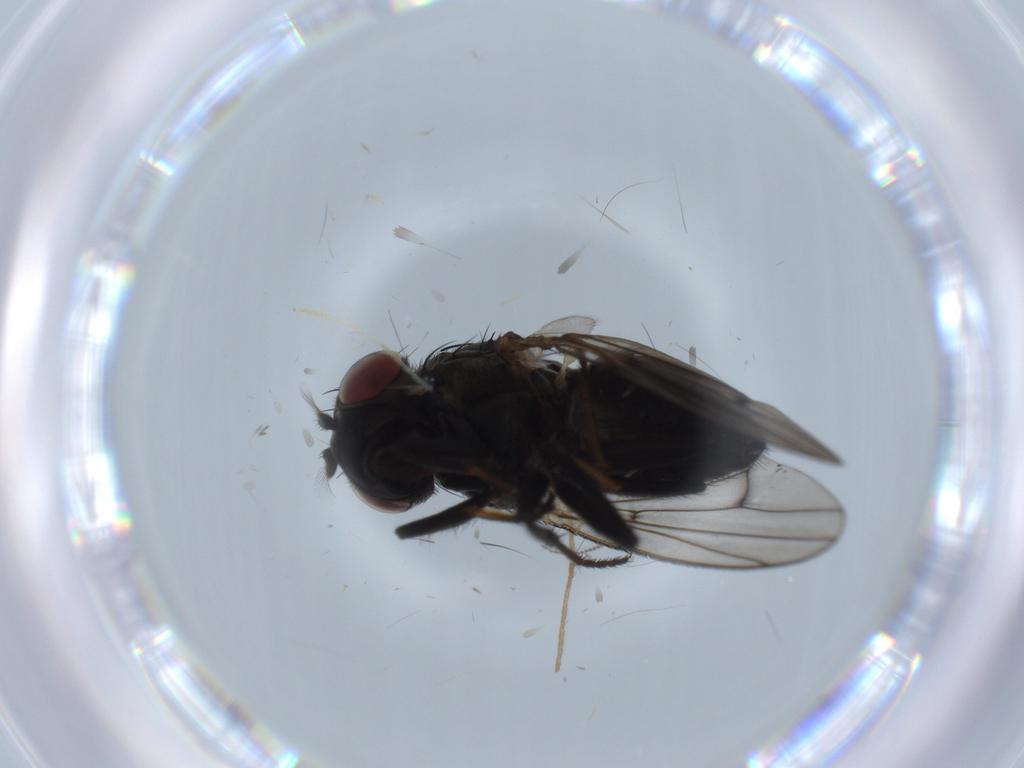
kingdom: Animalia
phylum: Arthropoda
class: Insecta
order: Diptera
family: Ephydridae
